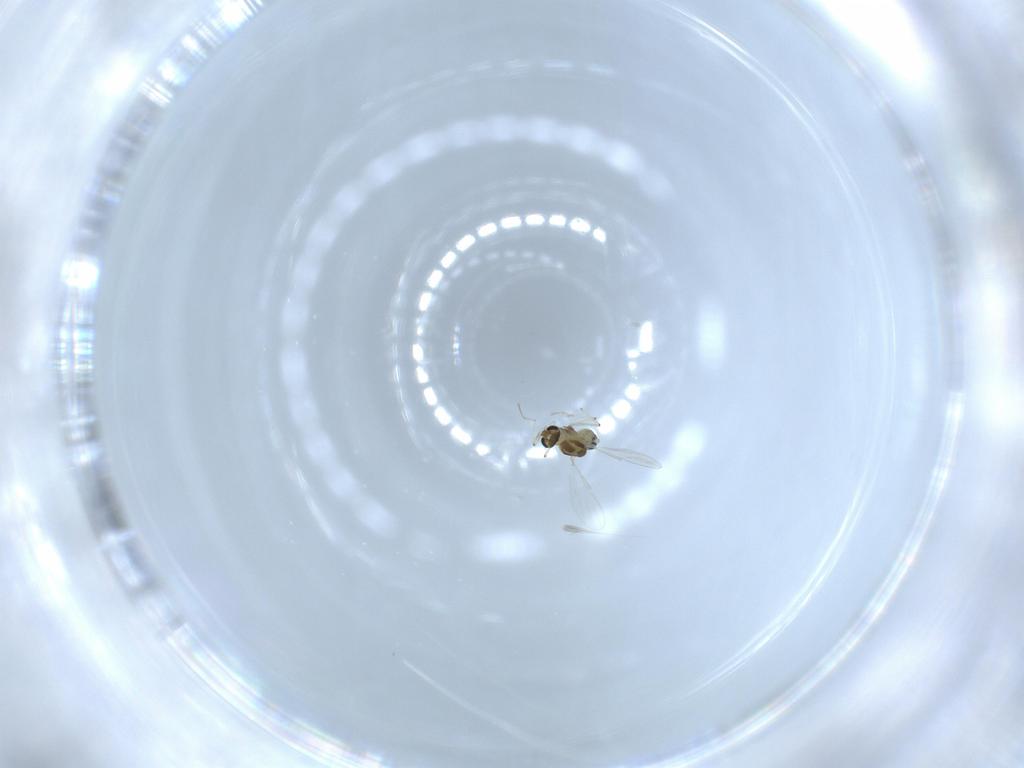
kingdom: Animalia
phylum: Arthropoda
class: Insecta
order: Diptera
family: Chironomidae
